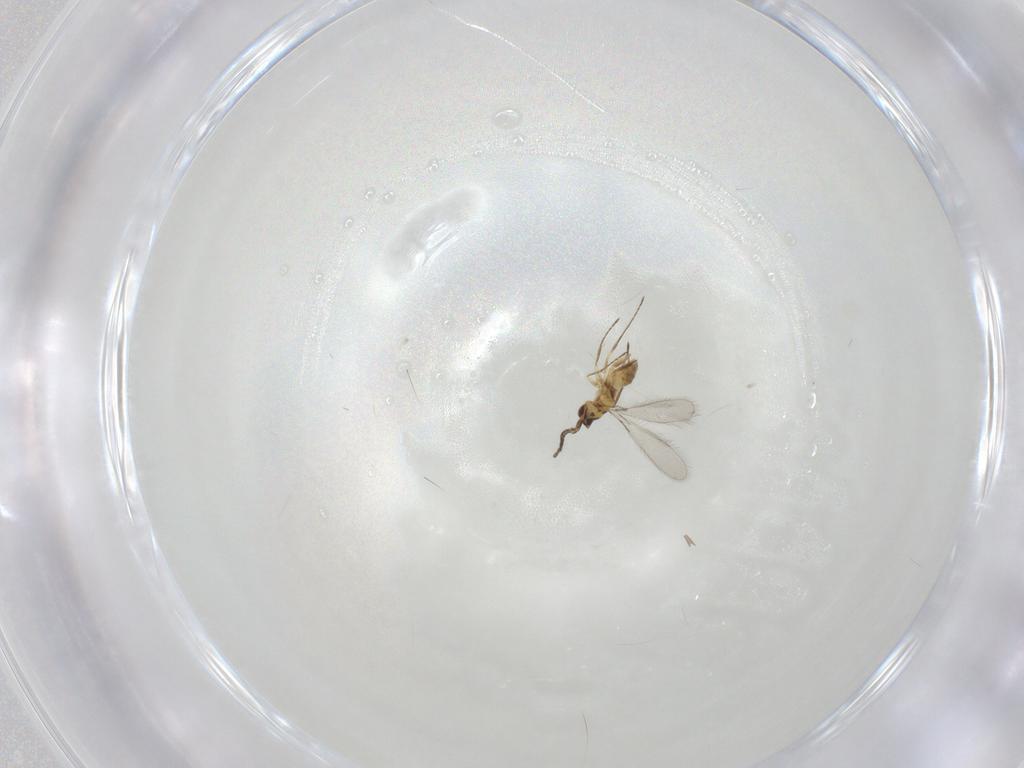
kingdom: Animalia
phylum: Arthropoda
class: Insecta
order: Hymenoptera
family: Mymaridae
